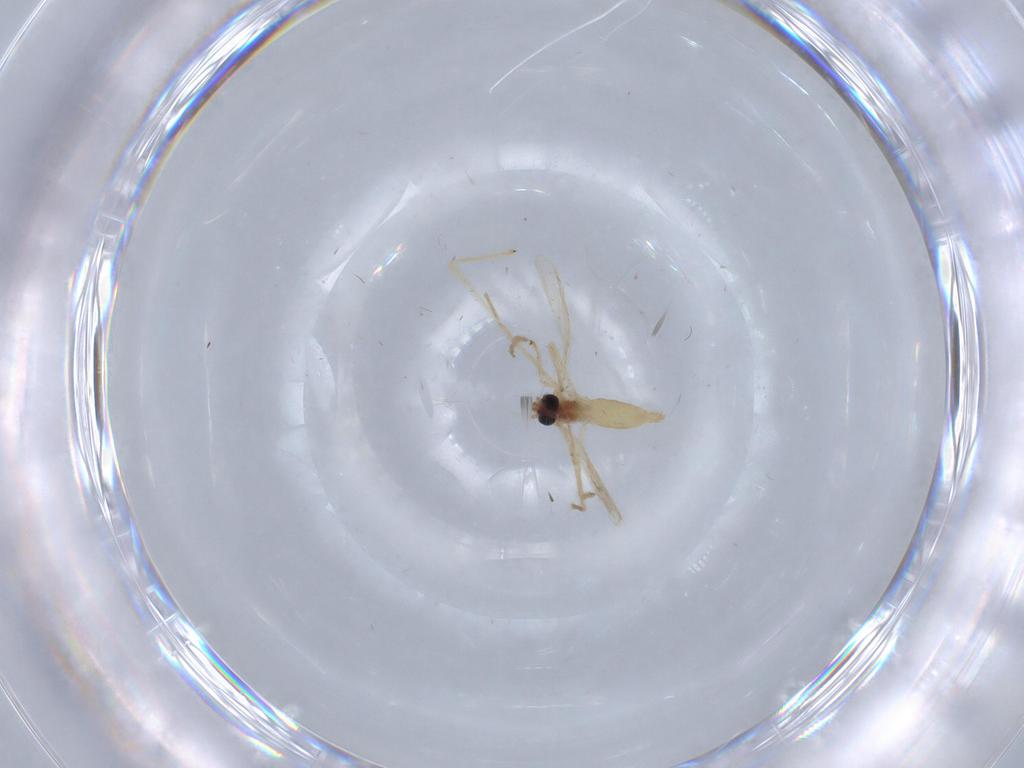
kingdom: Animalia
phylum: Arthropoda
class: Insecta
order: Diptera
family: Chironomidae
